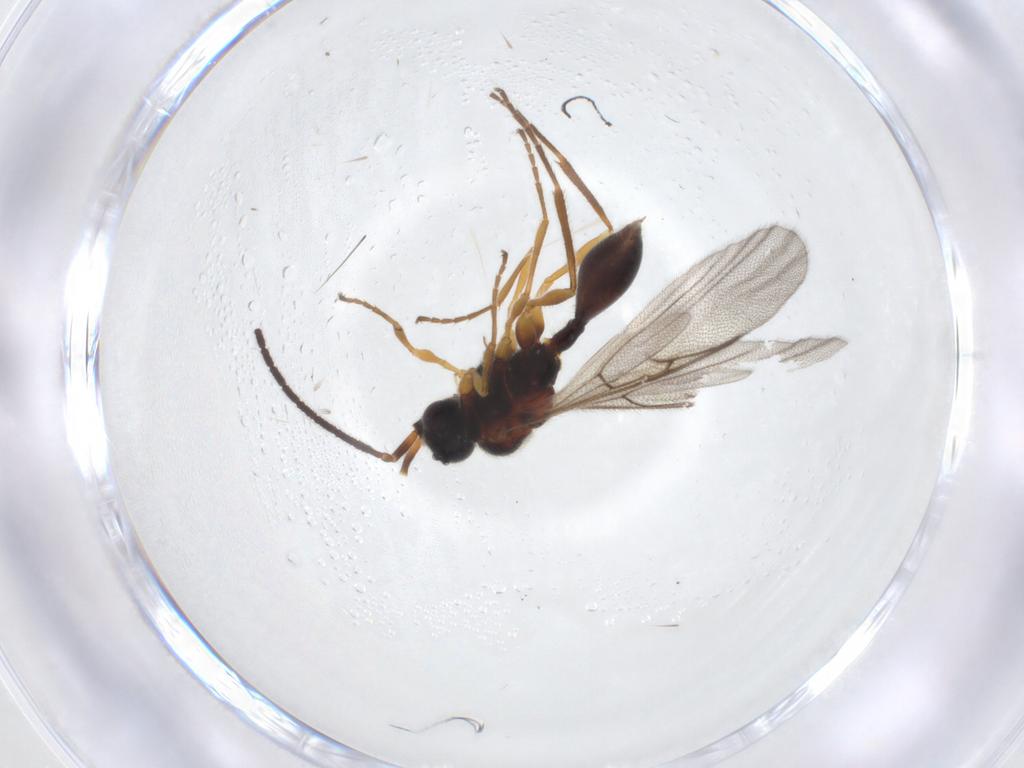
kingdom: Animalia
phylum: Arthropoda
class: Insecta
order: Hymenoptera
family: Diapriidae
